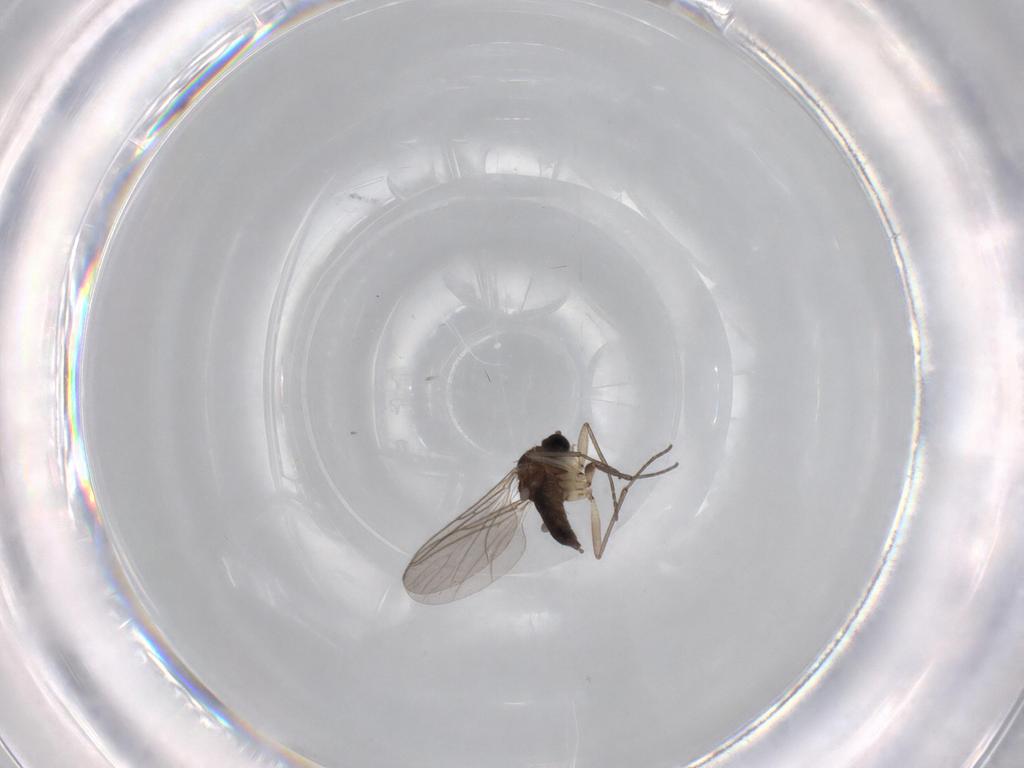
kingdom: Animalia
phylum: Arthropoda
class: Insecta
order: Diptera
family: Sciaridae
